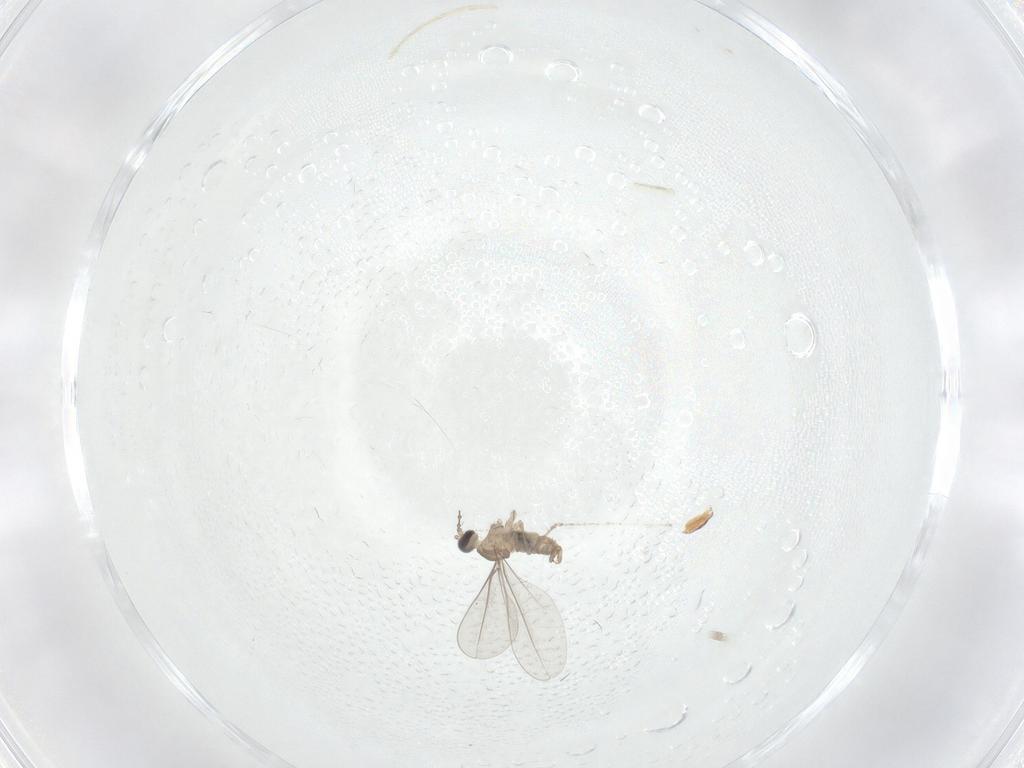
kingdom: Animalia
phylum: Arthropoda
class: Insecta
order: Diptera
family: Cecidomyiidae
